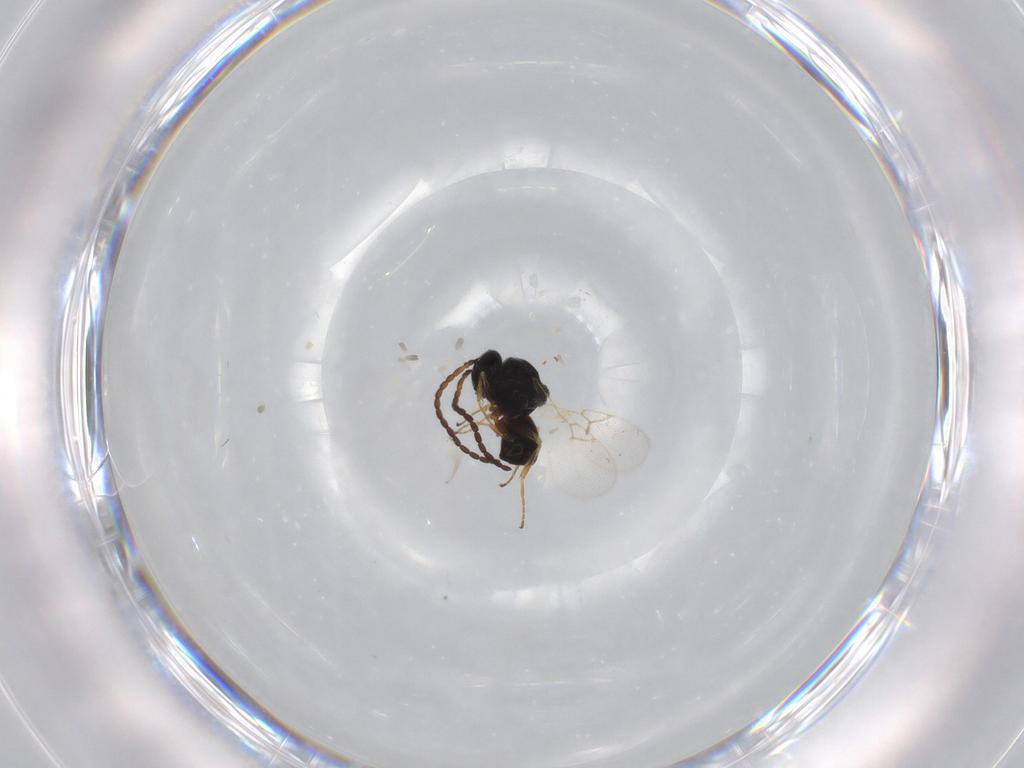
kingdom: Animalia
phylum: Arthropoda
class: Insecta
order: Hymenoptera
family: Figitidae
